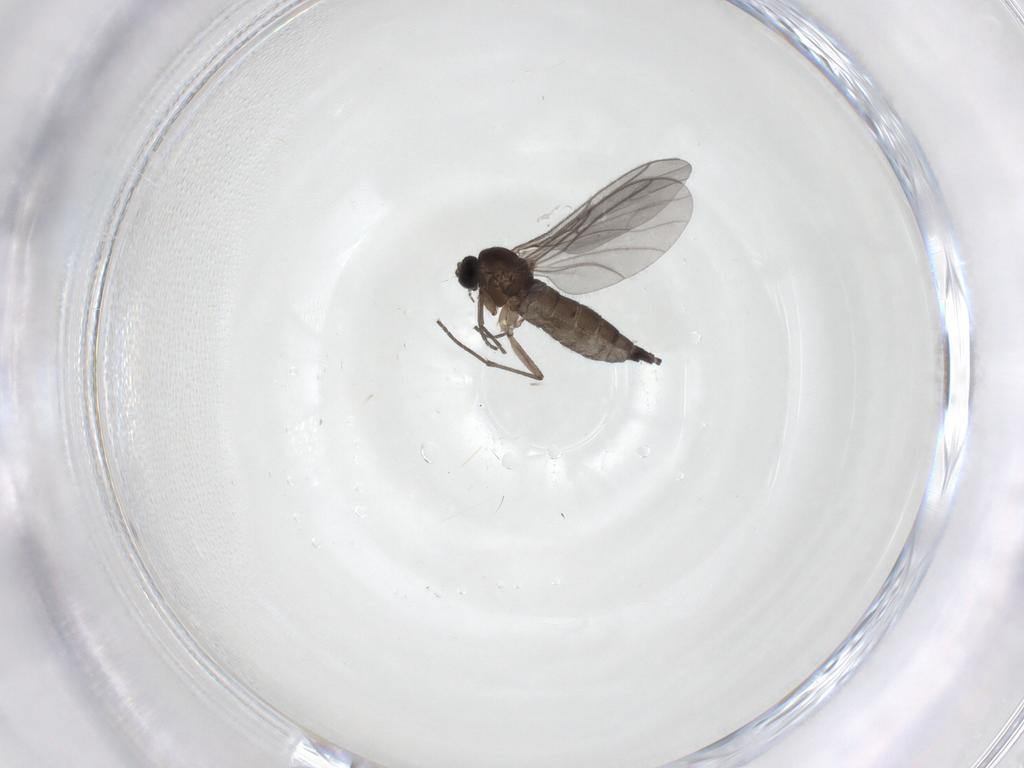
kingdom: Animalia
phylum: Arthropoda
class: Insecta
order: Diptera
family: Sciaridae
